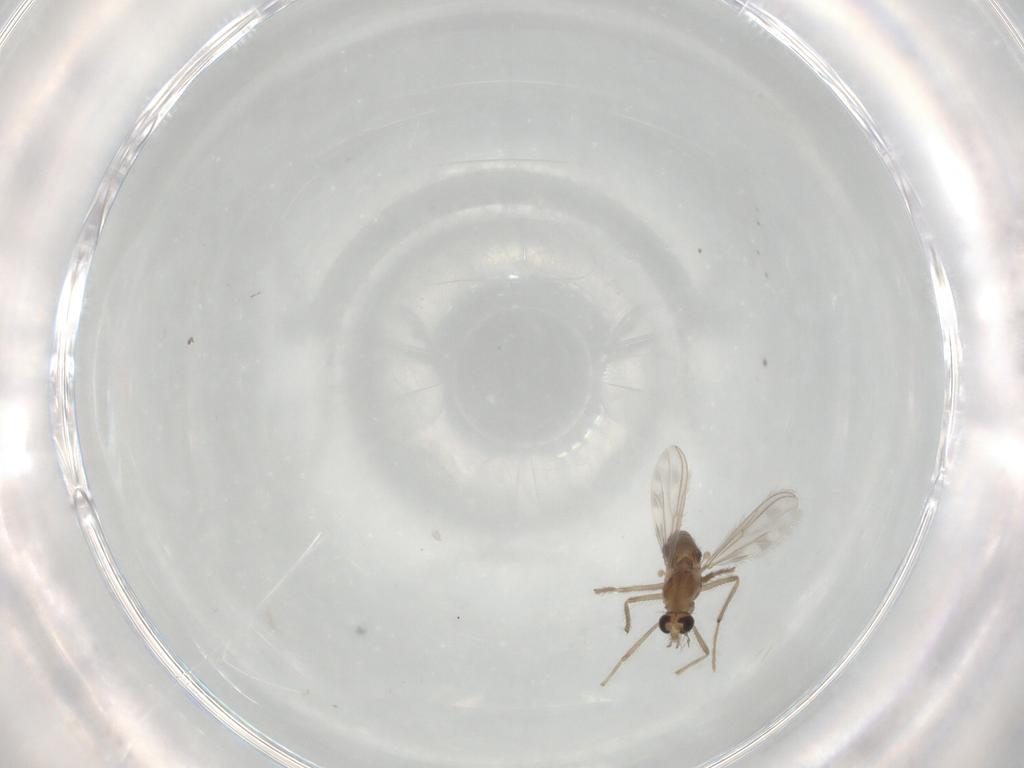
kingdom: Animalia
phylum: Arthropoda
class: Insecta
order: Diptera
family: Chironomidae
